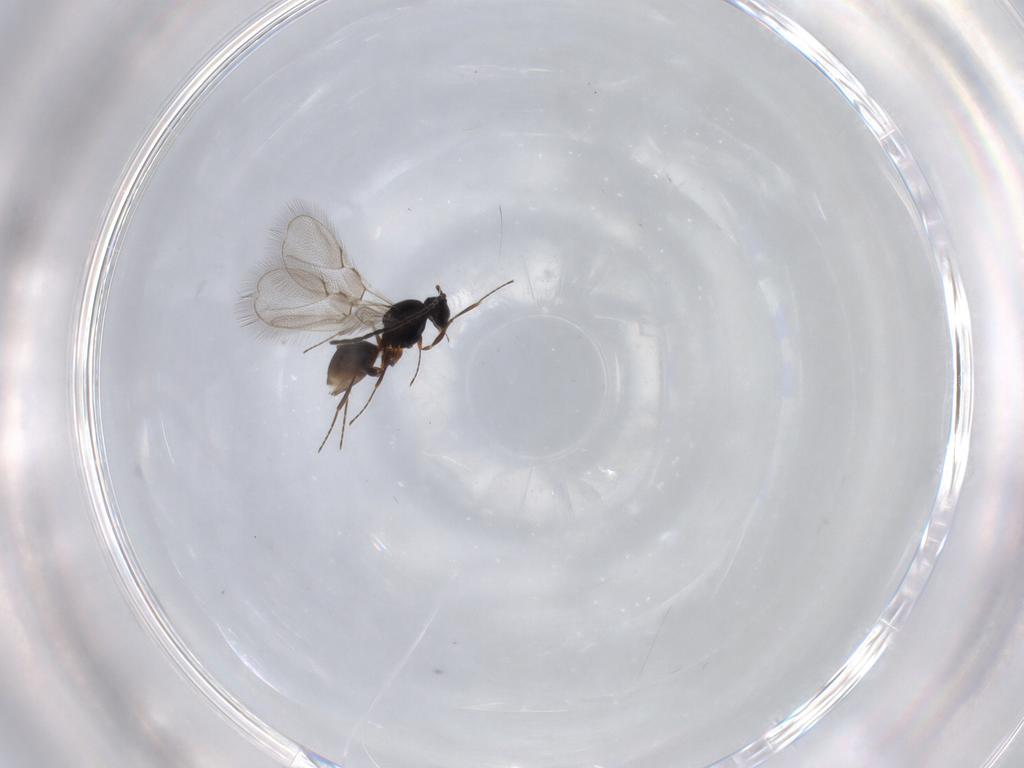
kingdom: Animalia
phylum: Arthropoda
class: Insecta
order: Hymenoptera
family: Figitidae
